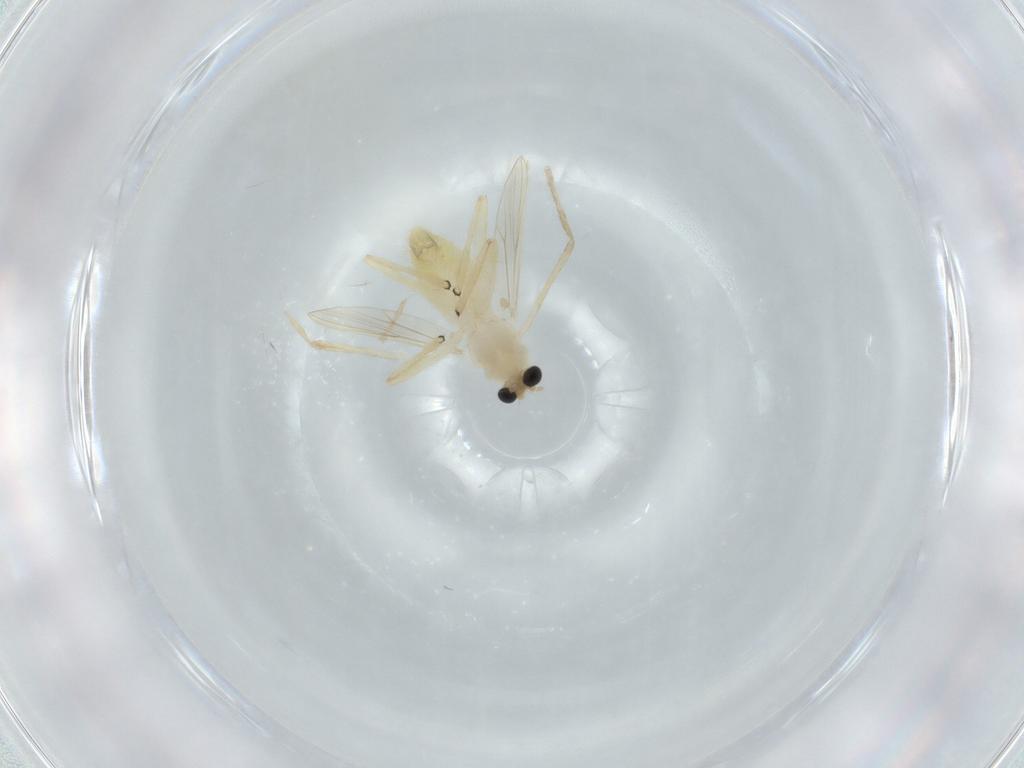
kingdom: Animalia
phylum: Arthropoda
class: Insecta
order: Diptera
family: Chironomidae
